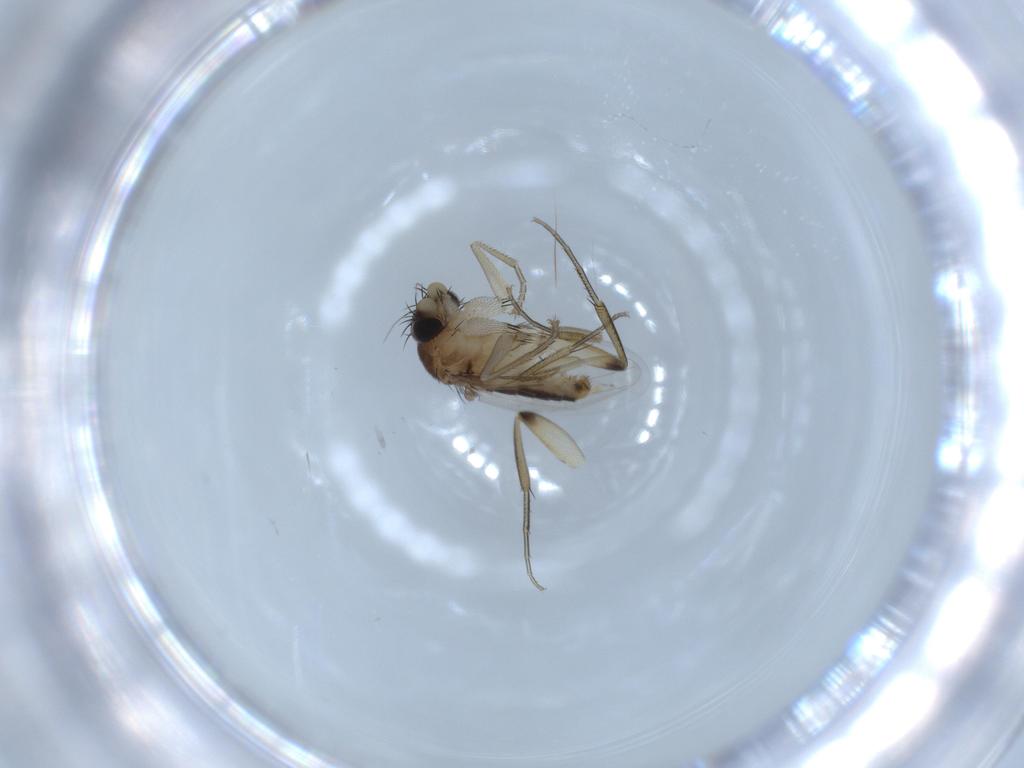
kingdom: Animalia
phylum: Arthropoda
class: Insecta
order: Diptera
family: Phoridae
